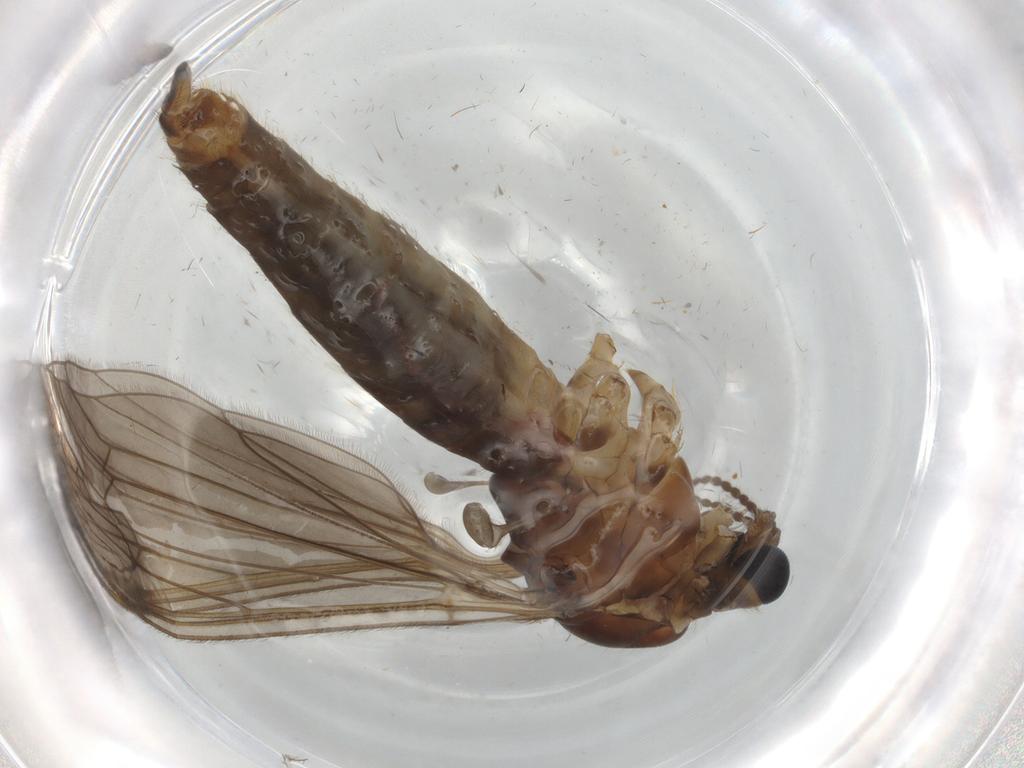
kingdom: Animalia
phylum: Arthropoda
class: Insecta
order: Diptera
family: Limoniidae
